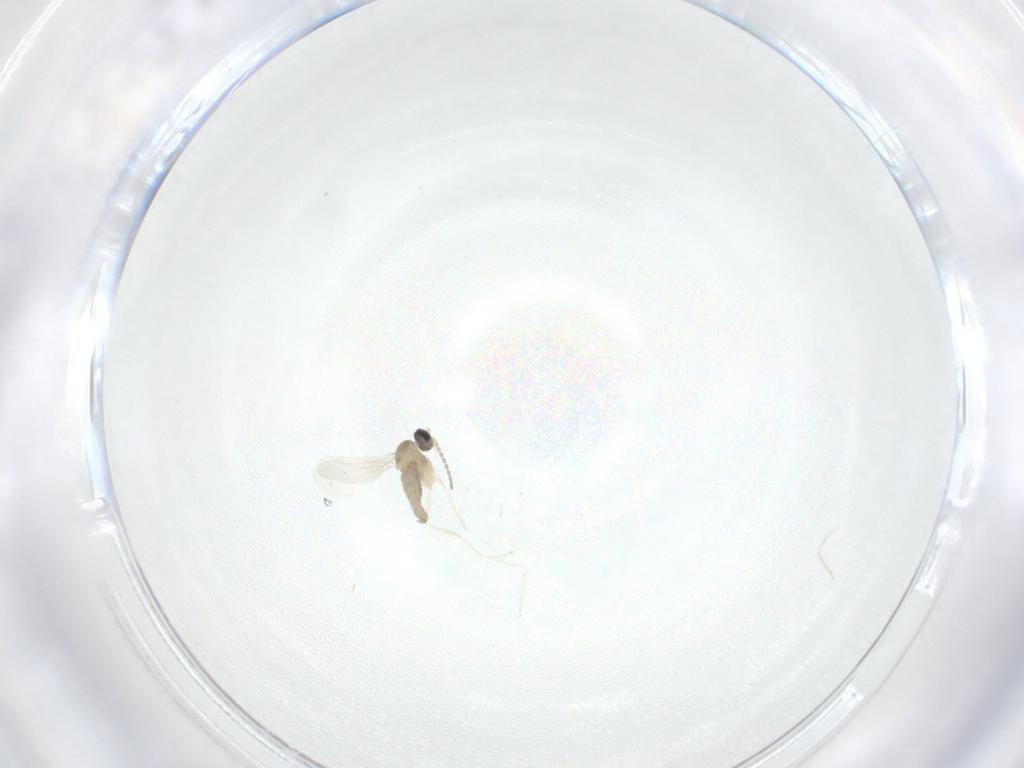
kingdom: Animalia
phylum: Arthropoda
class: Insecta
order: Diptera
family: Cecidomyiidae
